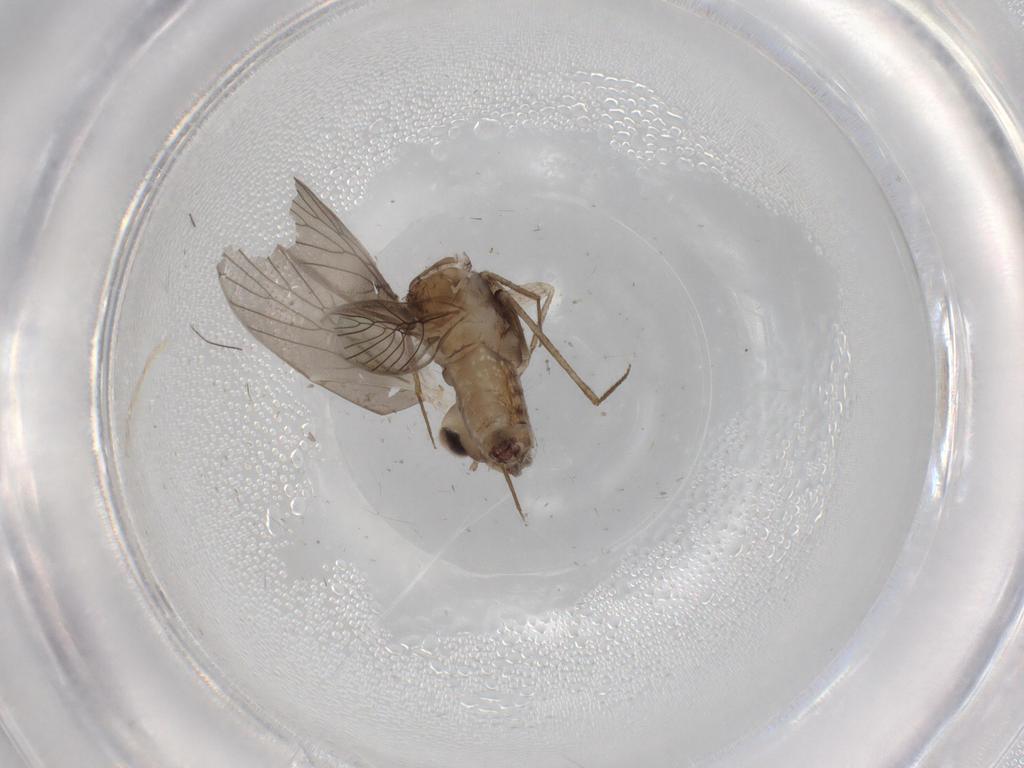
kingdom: Animalia
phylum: Arthropoda
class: Insecta
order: Psocodea
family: Lepidopsocidae
